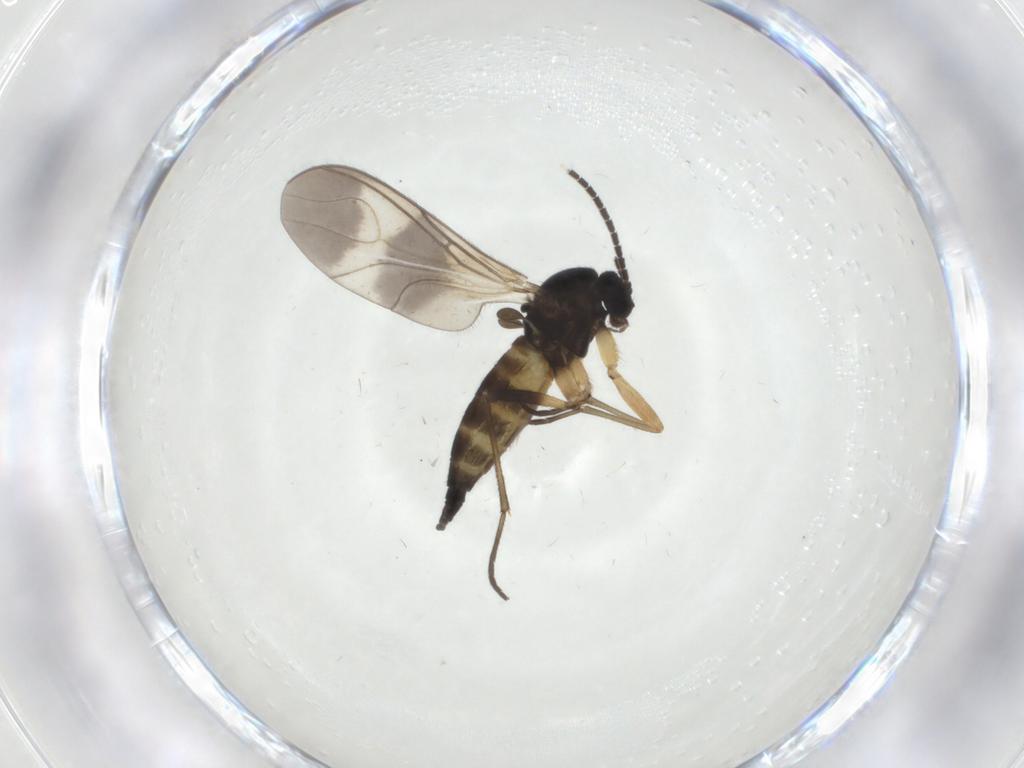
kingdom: Animalia
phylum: Arthropoda
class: Insecta
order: Diptera
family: Sciaridae
